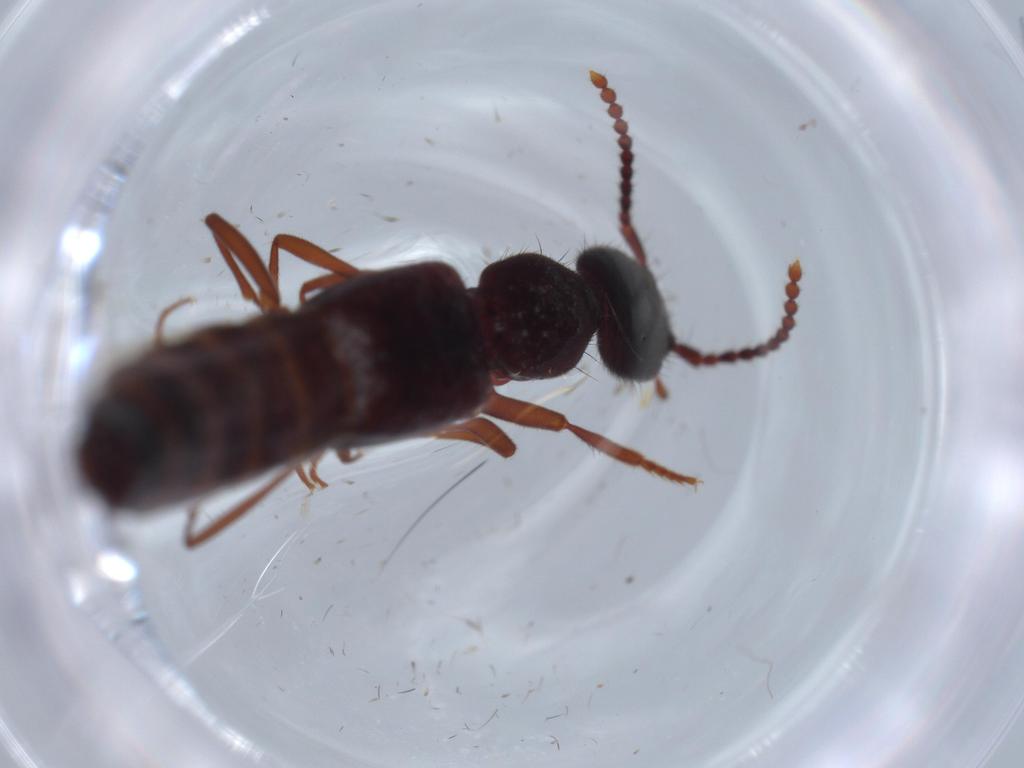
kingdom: Animalia
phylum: Arthropoda
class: Insecta
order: Coleoptera
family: Staphylinidae
